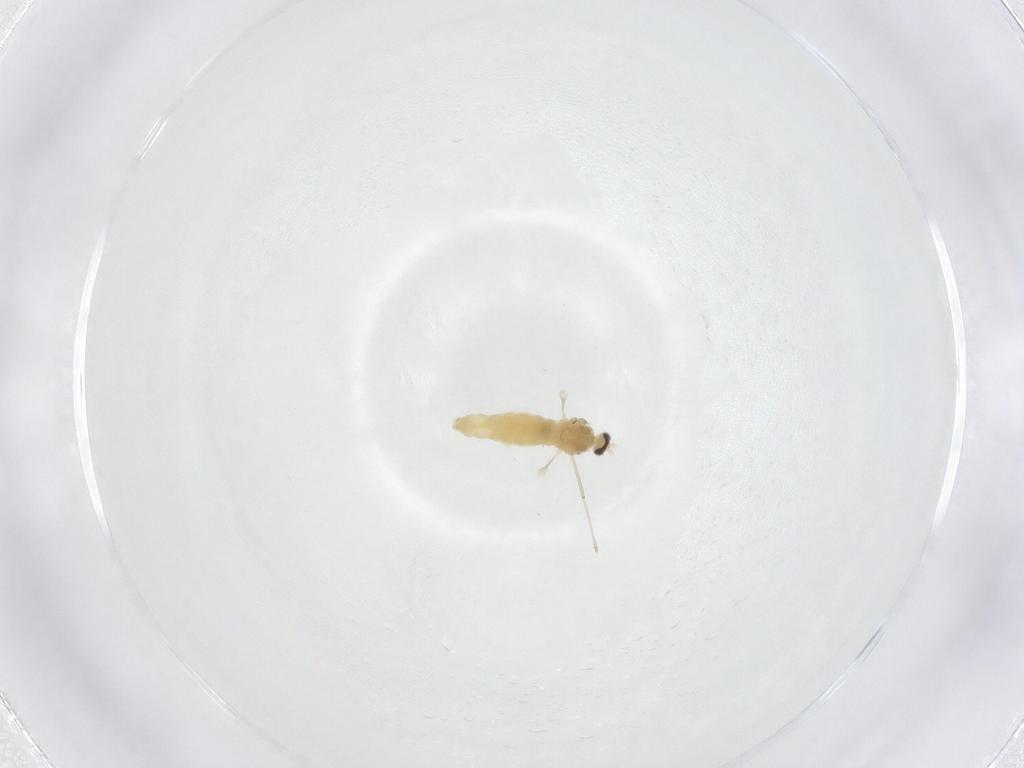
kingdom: Animalia
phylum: Arthropoda
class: Insecta
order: Diptera
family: Cecidomyiidae
